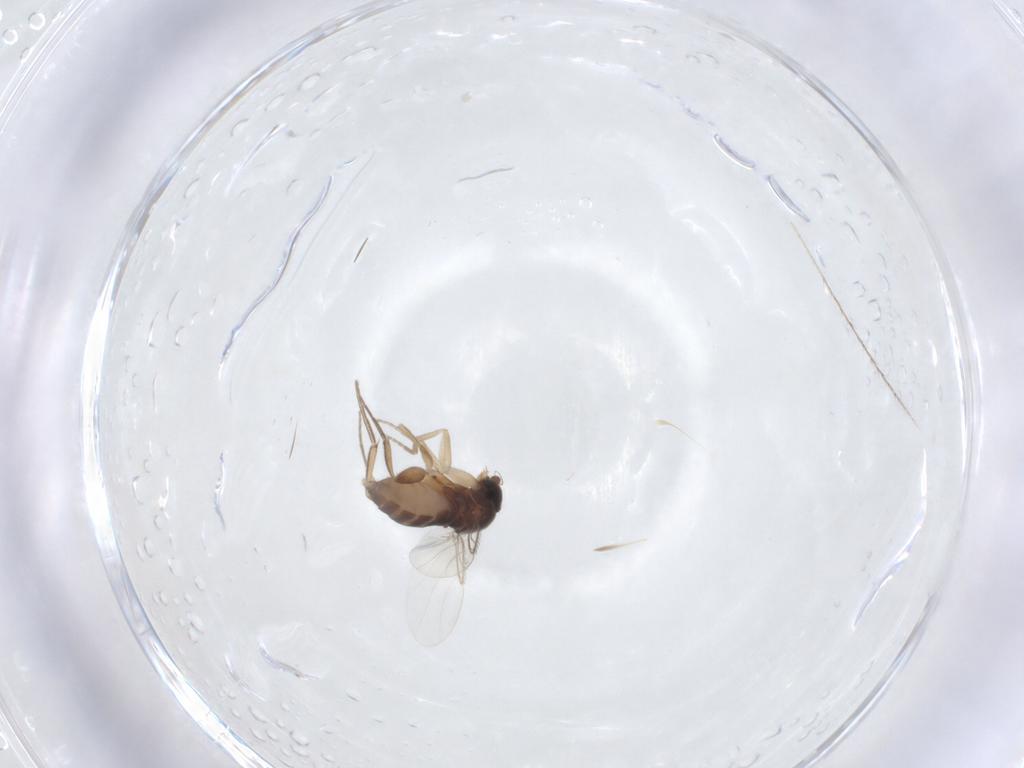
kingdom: Animalia
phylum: Arthropoda
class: Insecta
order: Diptera
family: Phoridae
